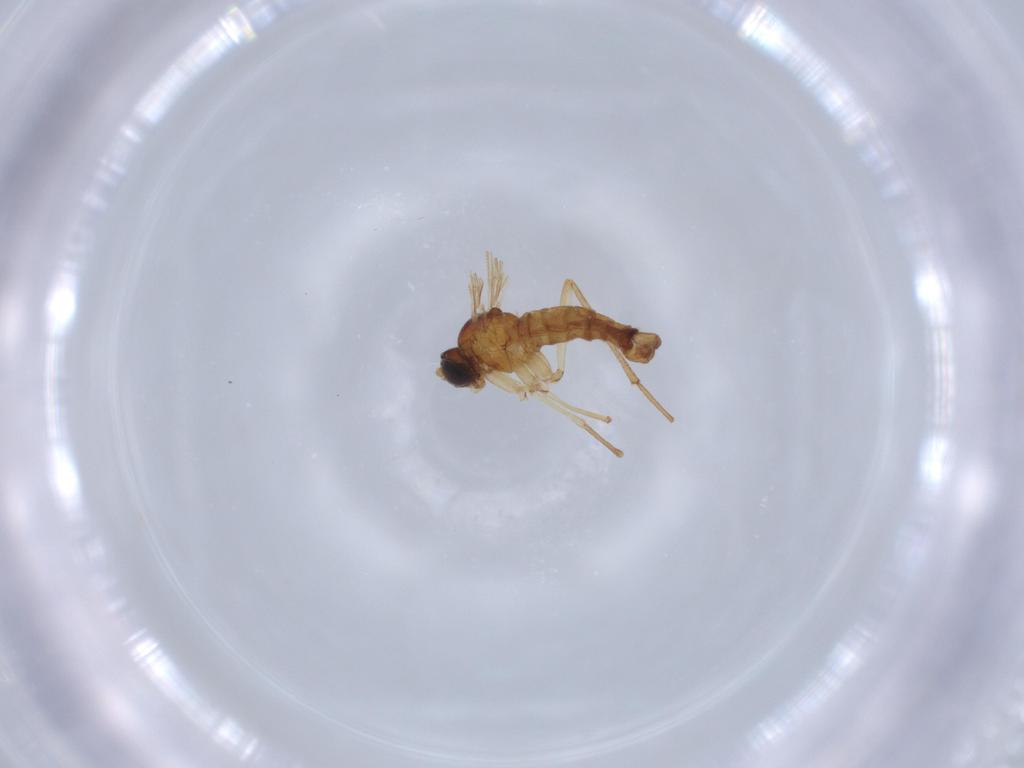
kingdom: Animalia
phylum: Arthropoda
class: Insecta
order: Diptera
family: Cecidomyiidae
